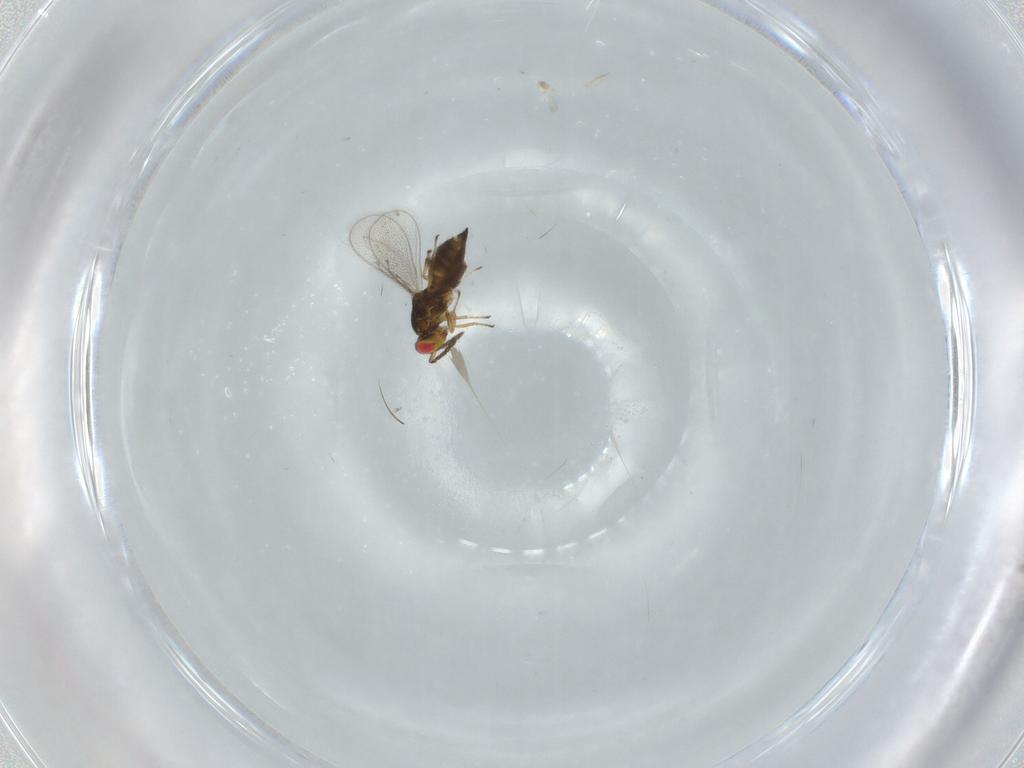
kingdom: Animalia
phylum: Arthropoda
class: Insecta
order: Hymenoptera
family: Eulophidae
